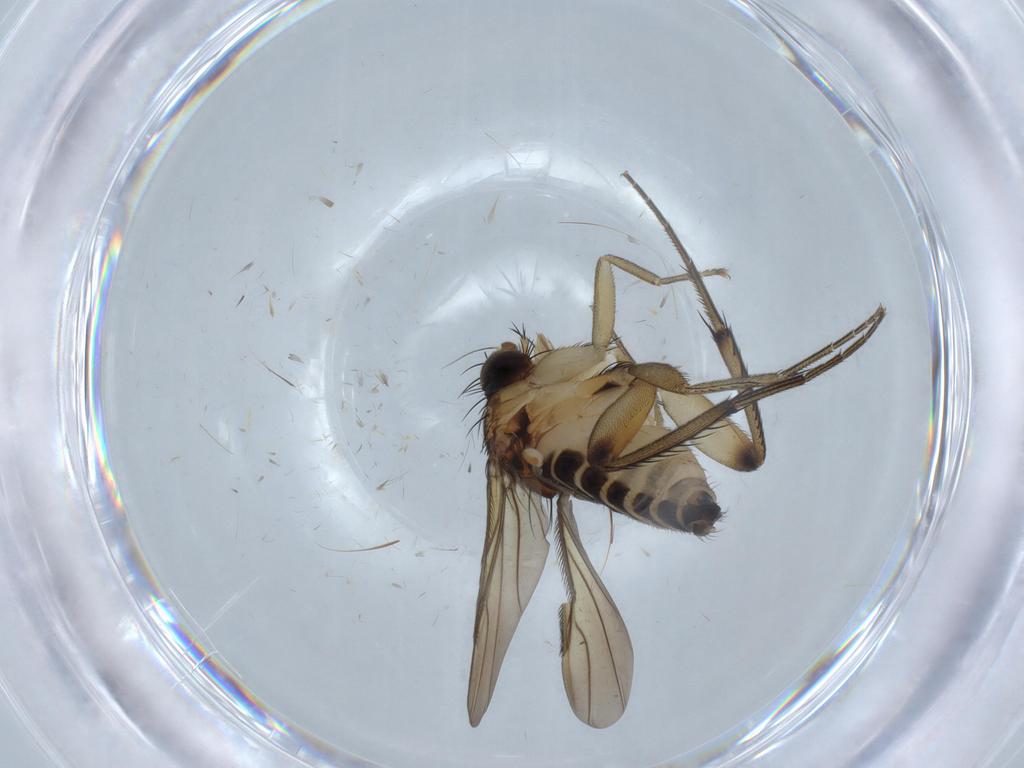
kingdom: Animalia
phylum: Arthropoda
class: Insecta
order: Diptera
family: Phoridae
